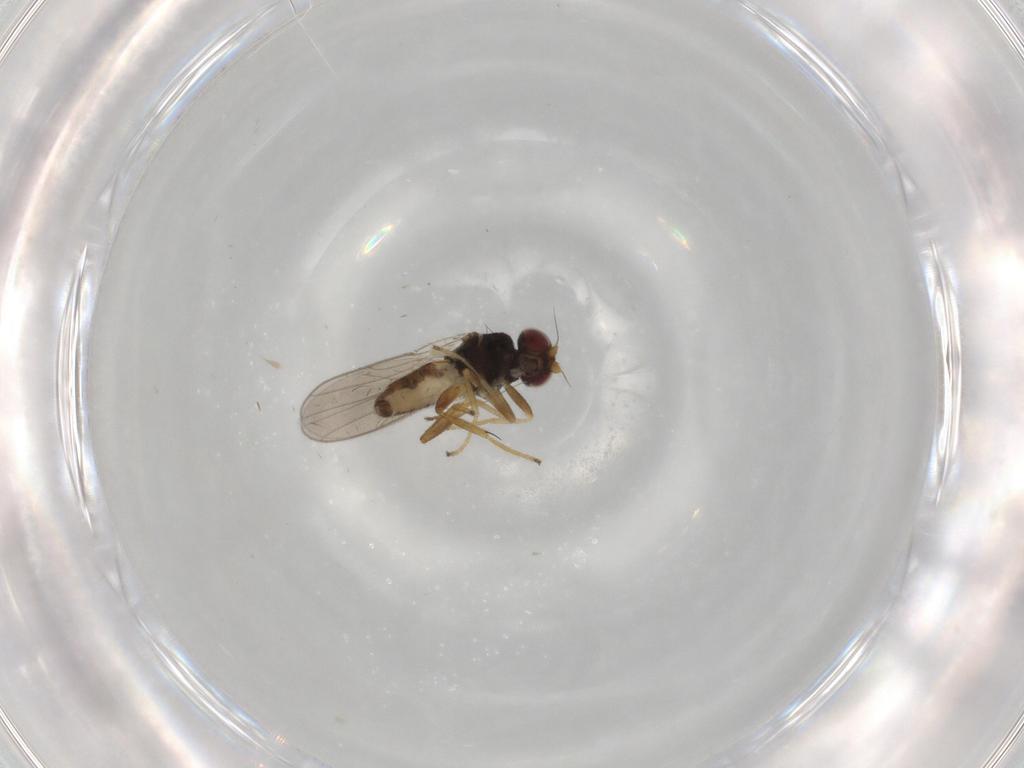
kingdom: Animalia
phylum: Arthropoda
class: Insecta
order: Diptera
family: Chloropidae
